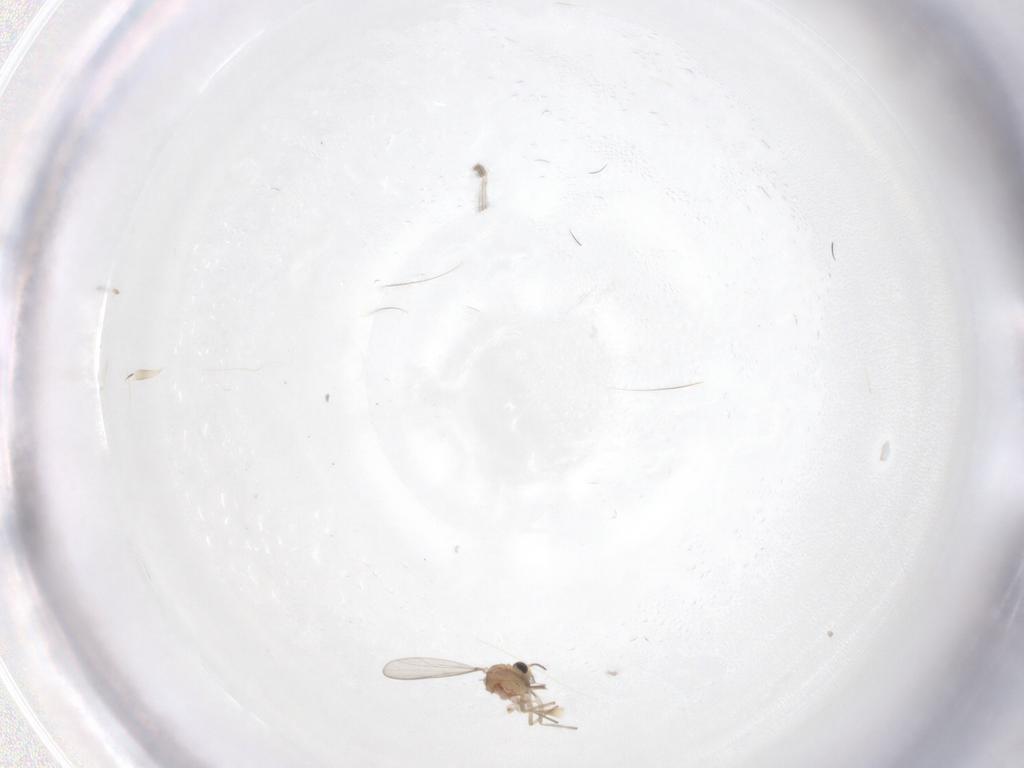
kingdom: Animalia
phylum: Arthropoda
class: Insecta
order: Diptera
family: Chironomidae
